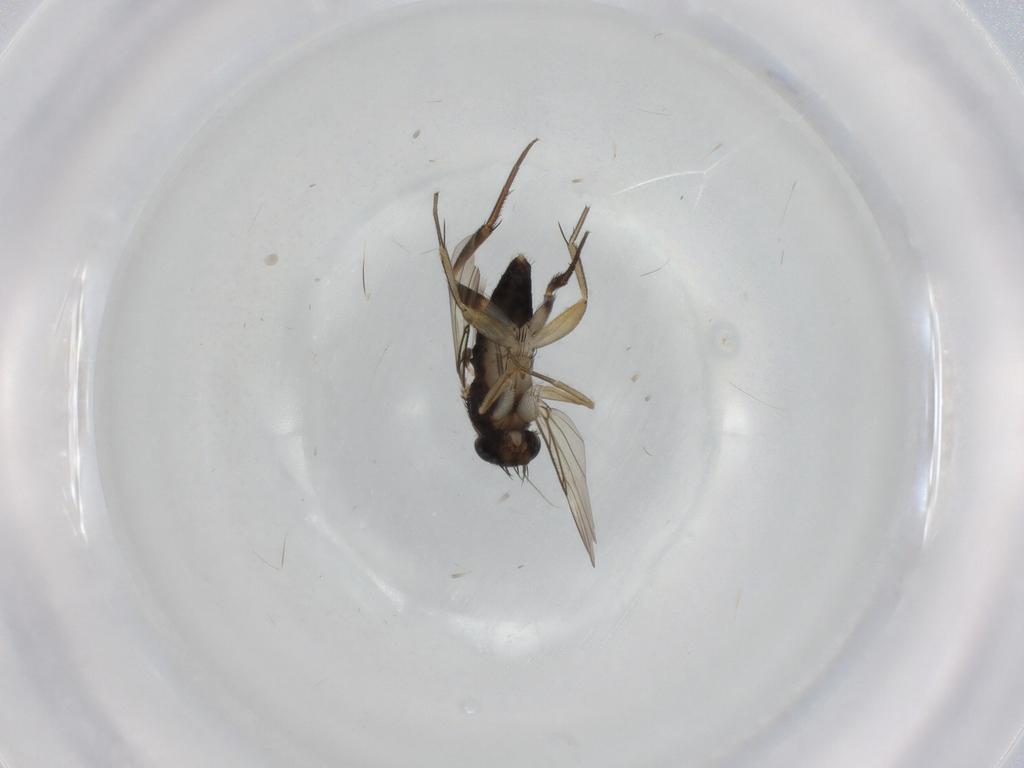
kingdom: Animalia
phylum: Arthropoda
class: Insecta
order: Diptera
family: Phoridae
